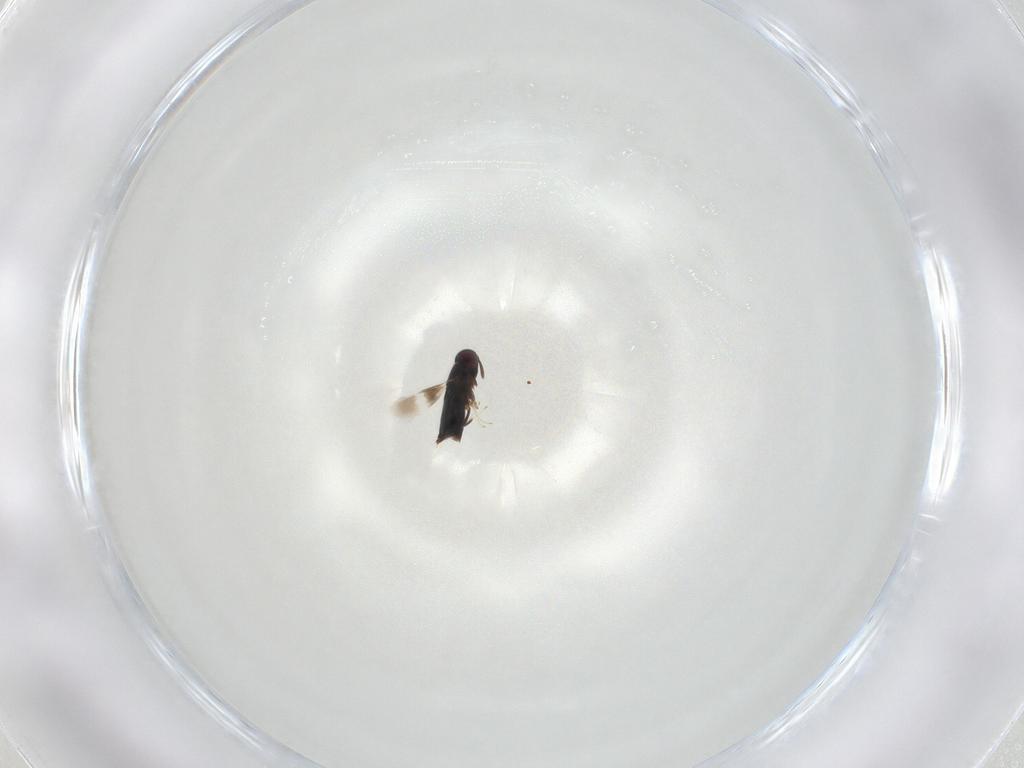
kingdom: Animalia
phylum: Arthropoda
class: Insecta
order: Hymenoptera
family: Signiphoridae
